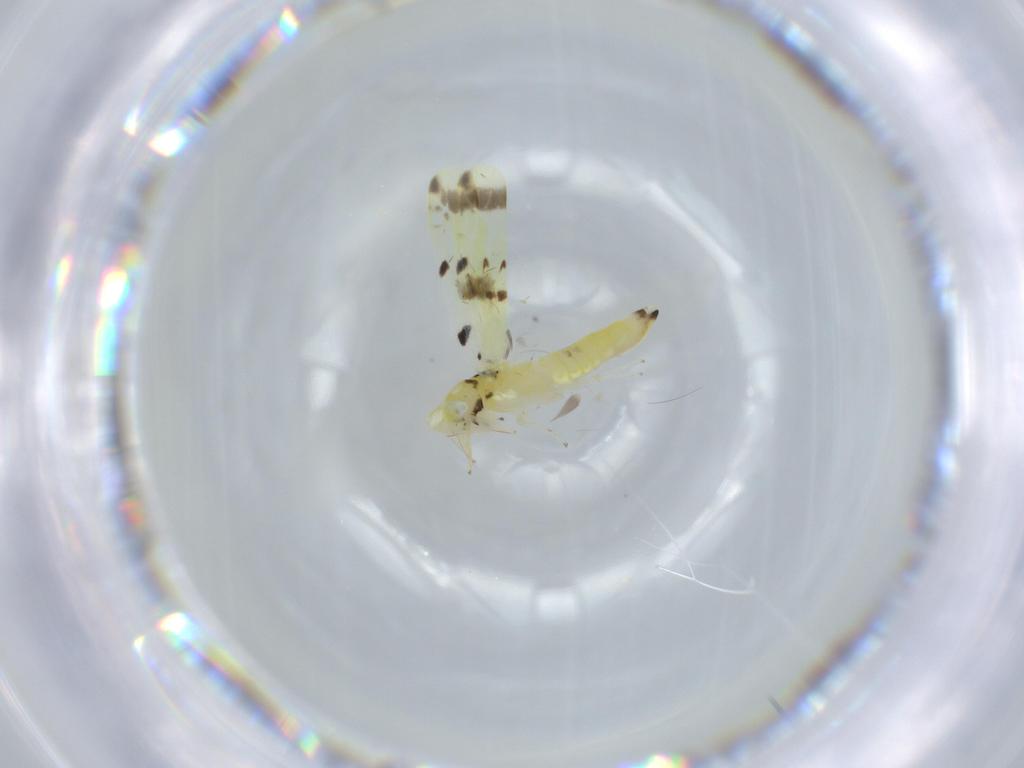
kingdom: Animalia
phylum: Arthropoda
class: Insecta
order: Hemiptera
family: Cicadellidae
